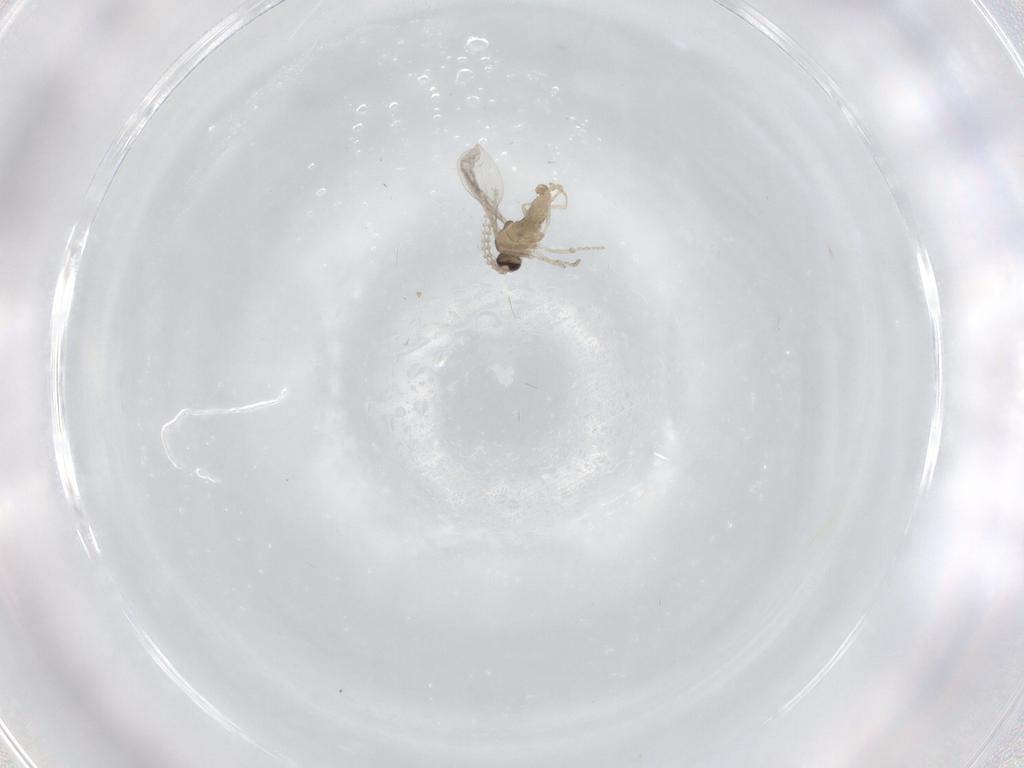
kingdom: Animalia
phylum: Arthropoda
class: Insecta
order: Diptera
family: Cecidomyiidae
